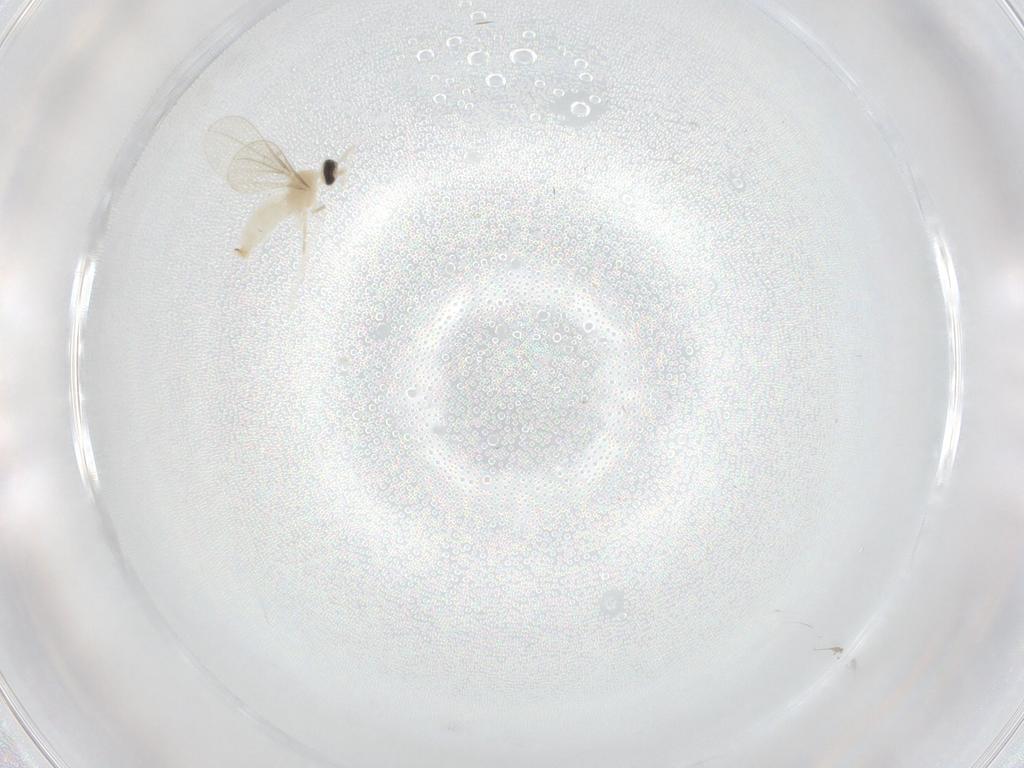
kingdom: Animalia
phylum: Arthropoda
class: Insecta
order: Diptera
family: Cecidomyiidae
